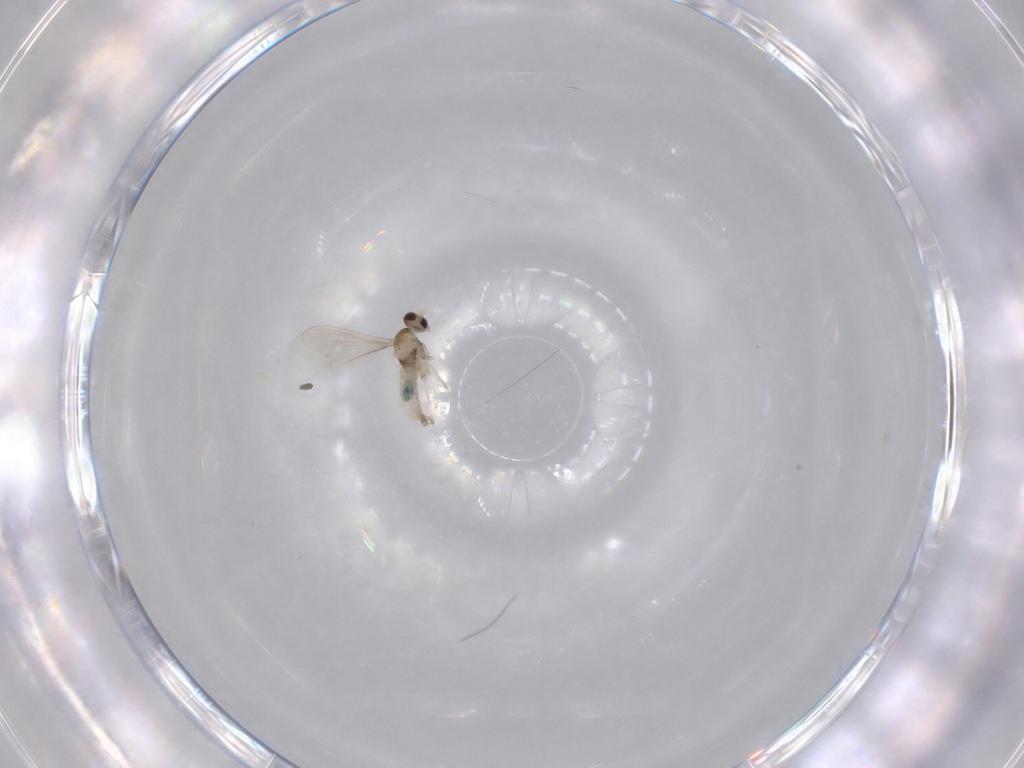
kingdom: Animalia
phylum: Arthropoda
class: Insecta
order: Diptera
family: Cecidomyiidae
